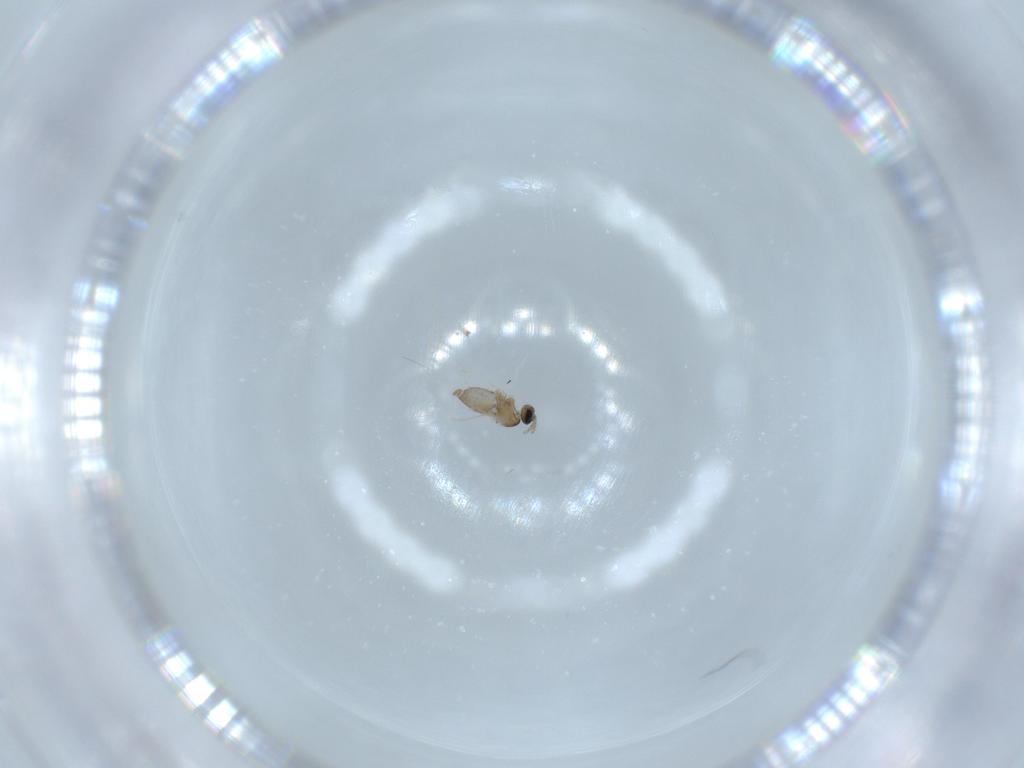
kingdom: Animalia
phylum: Arthropoda
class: Insecta
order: Diptera
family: Cecidomyiidae
